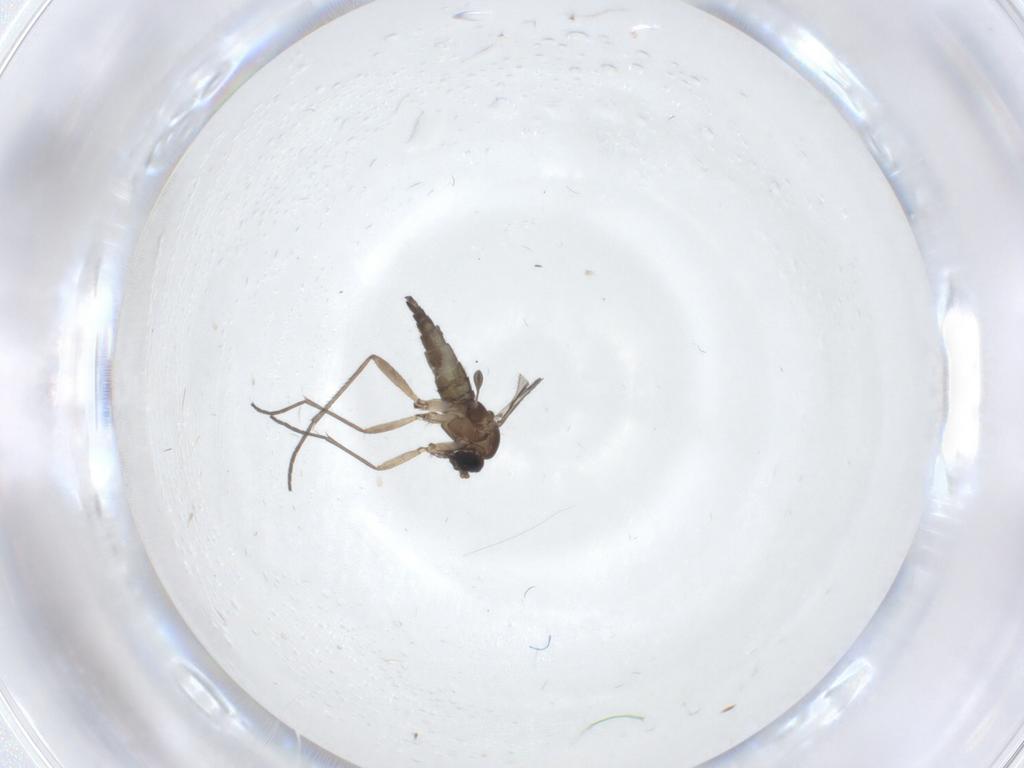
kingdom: Animalia
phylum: Arthropoda
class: Insecta
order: Diptera
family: Sciaridae
